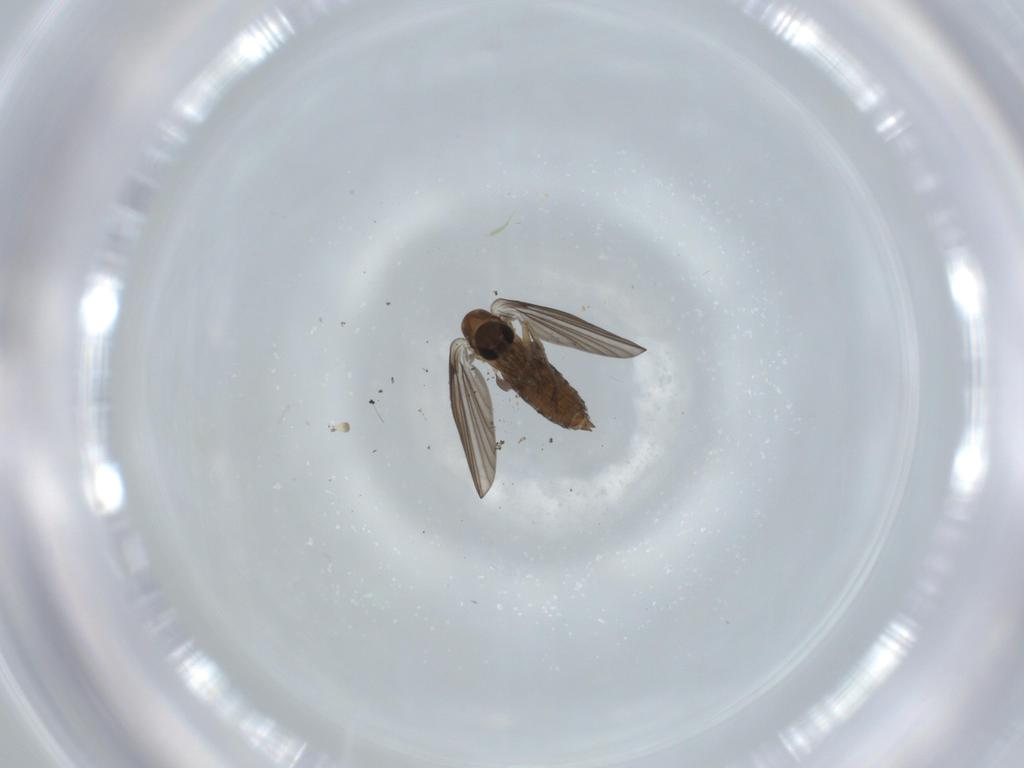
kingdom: Animalia
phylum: Arthropoda
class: Insecta
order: Diptera
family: Psychodidae
